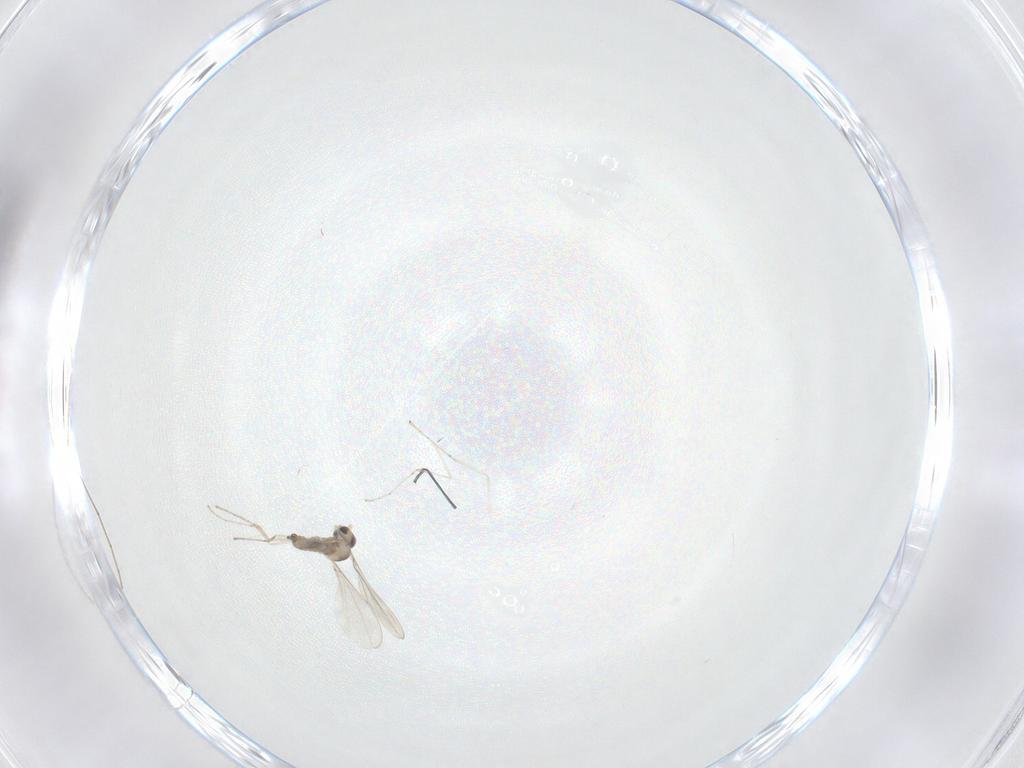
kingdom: Animalia
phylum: Arthropoda
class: Insecta
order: Diptera
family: Cecidomyiidae
